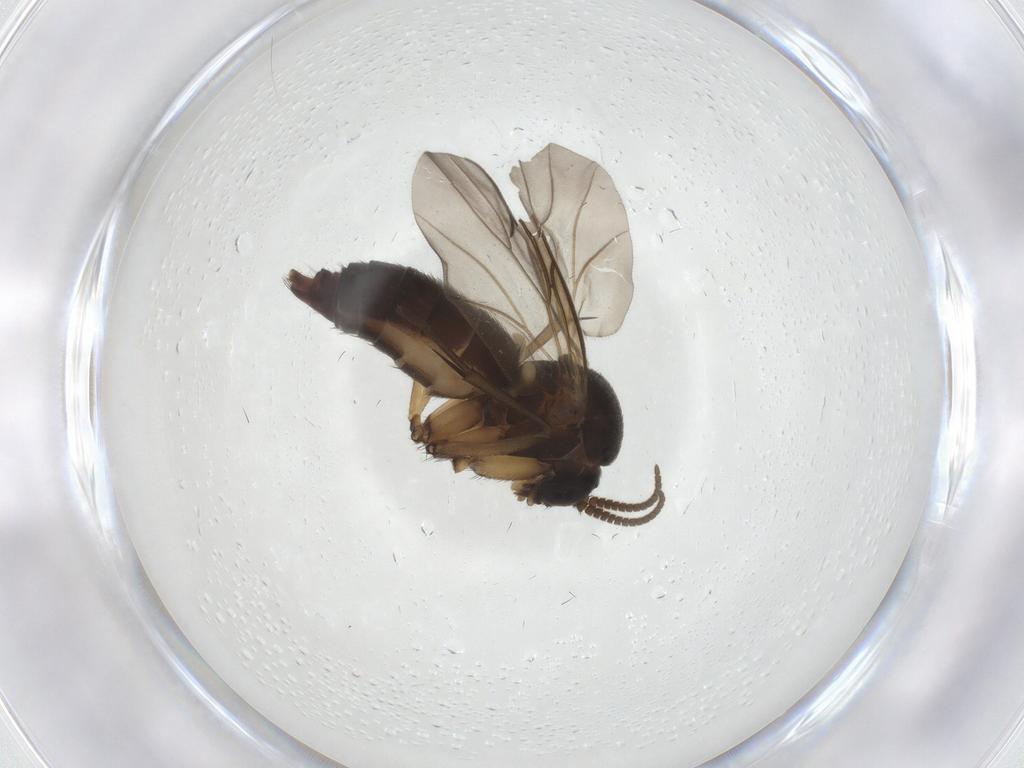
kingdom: Animalia
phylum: Arthropoda
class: Insecta
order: Diptera
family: Mycetophilidae
